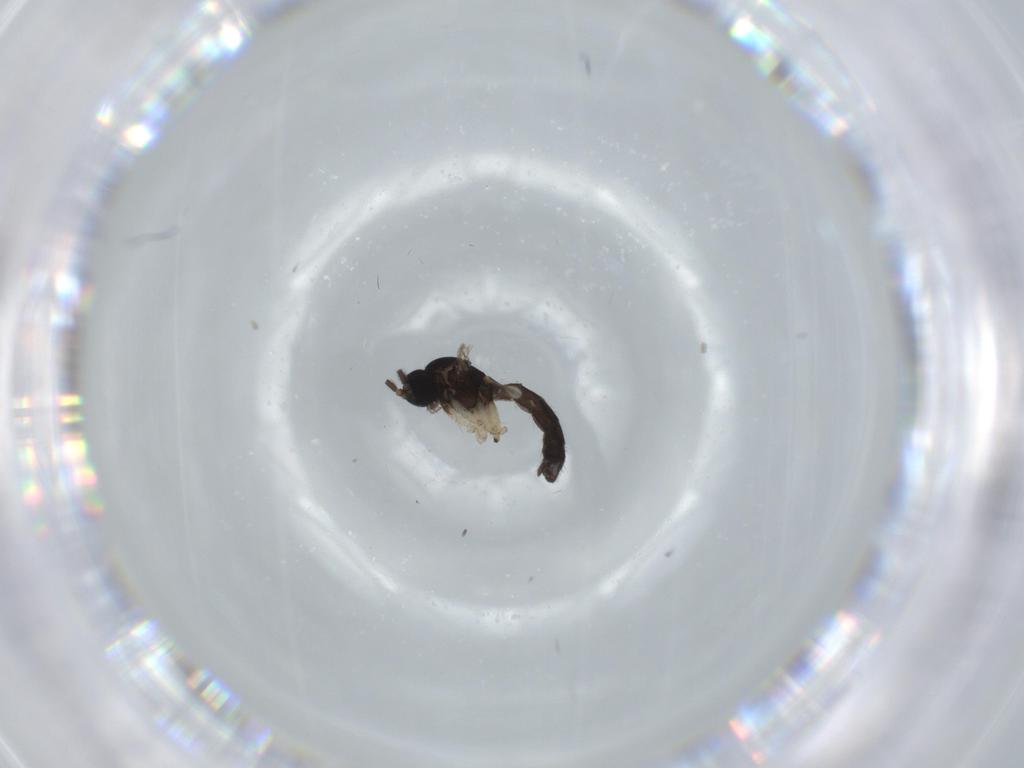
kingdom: Animalia
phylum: Arthropoda
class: Insecta
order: Diptera
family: Sciaridae
